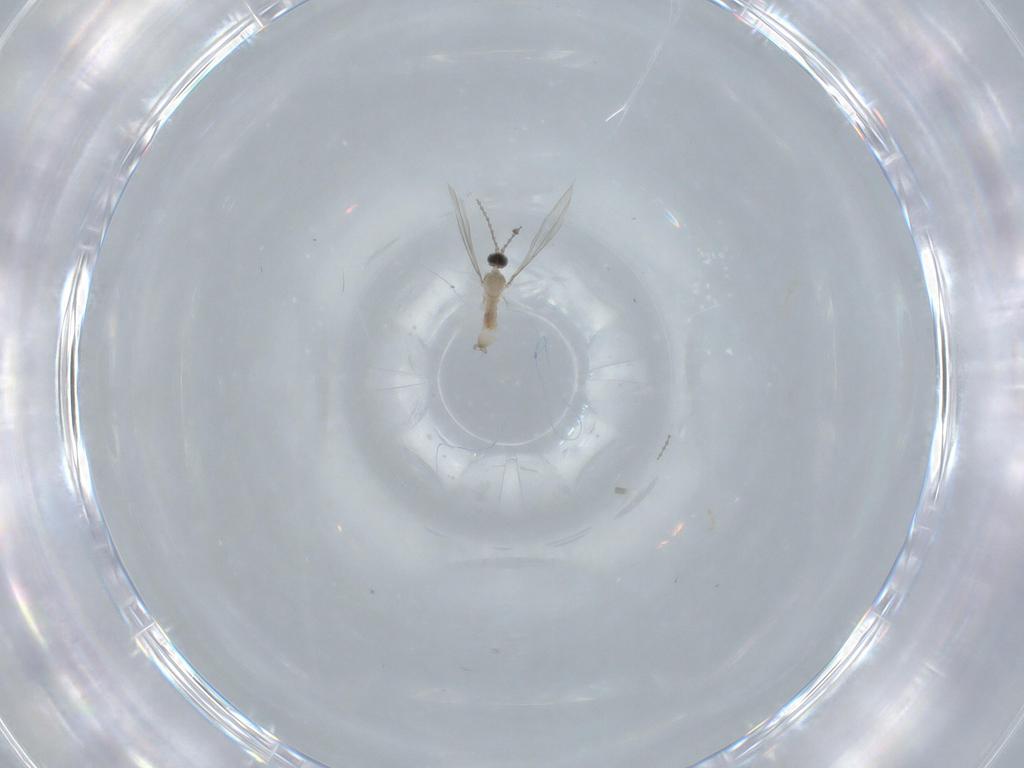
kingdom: Animalia
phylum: Arthropoda
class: Insecta
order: Diptera
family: Cecidomyiidae
